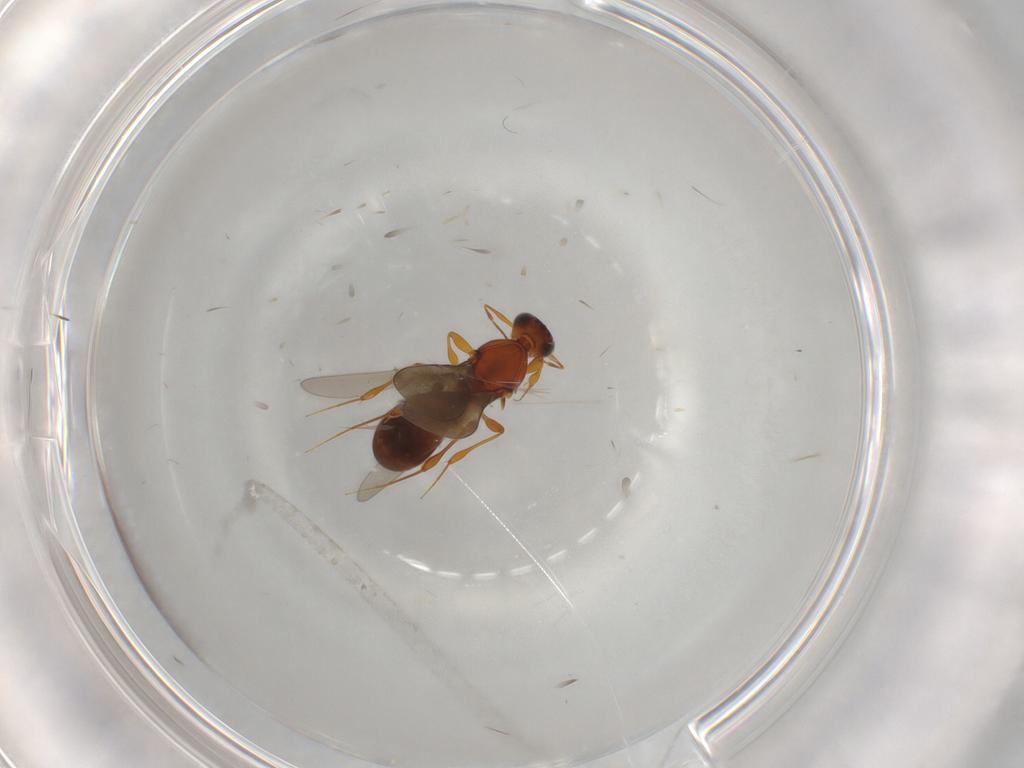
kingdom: Animalia
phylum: Arthropoda
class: Insecta
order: Hymenoptera
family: Platygastridae
